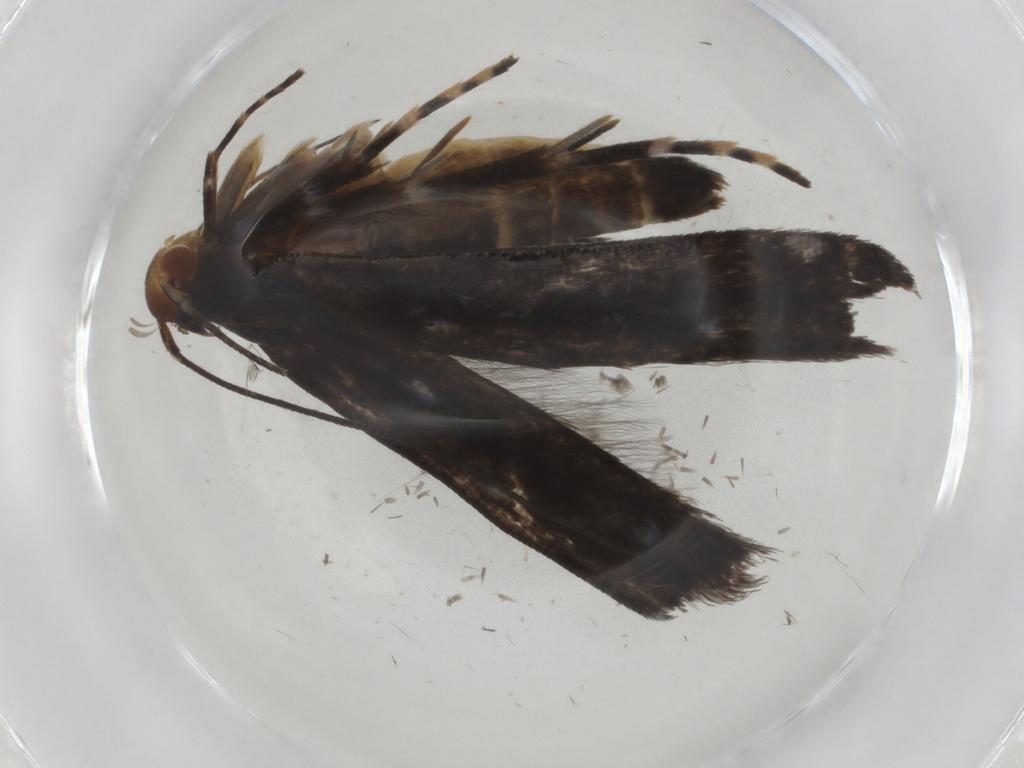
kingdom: Animalia
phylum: Arthropoda
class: Insecta
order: Lepidoptera
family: Gelechiidae
